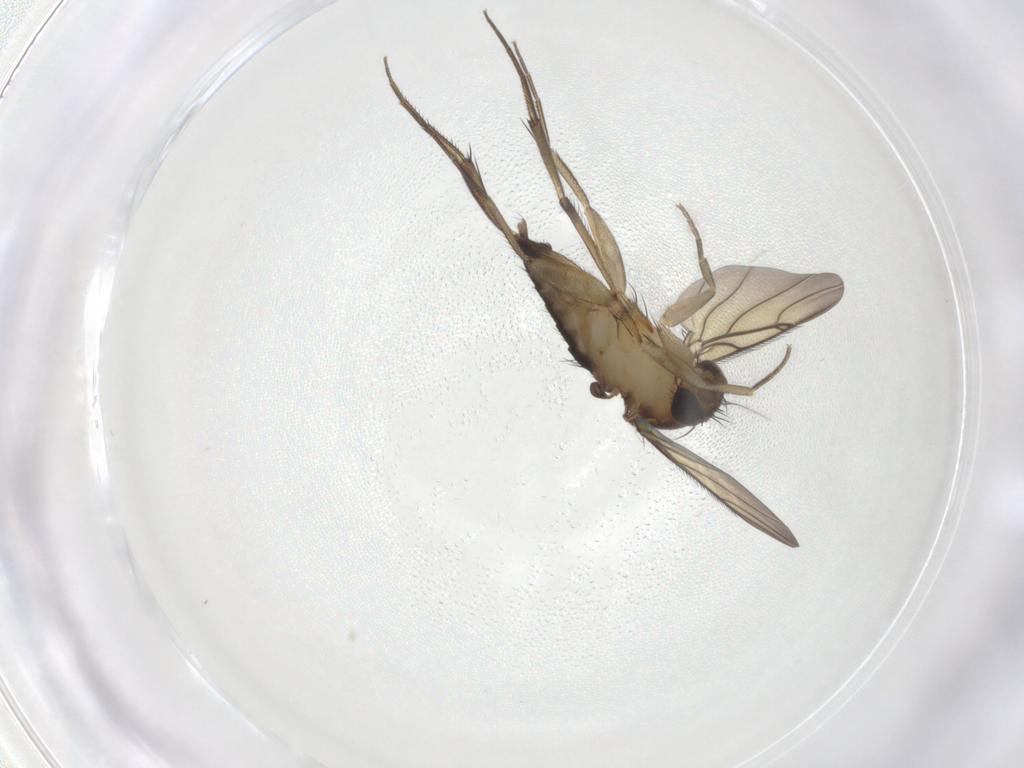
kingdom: Animalia
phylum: Arthropoda
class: Insecta
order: Diptera
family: Phoridae
